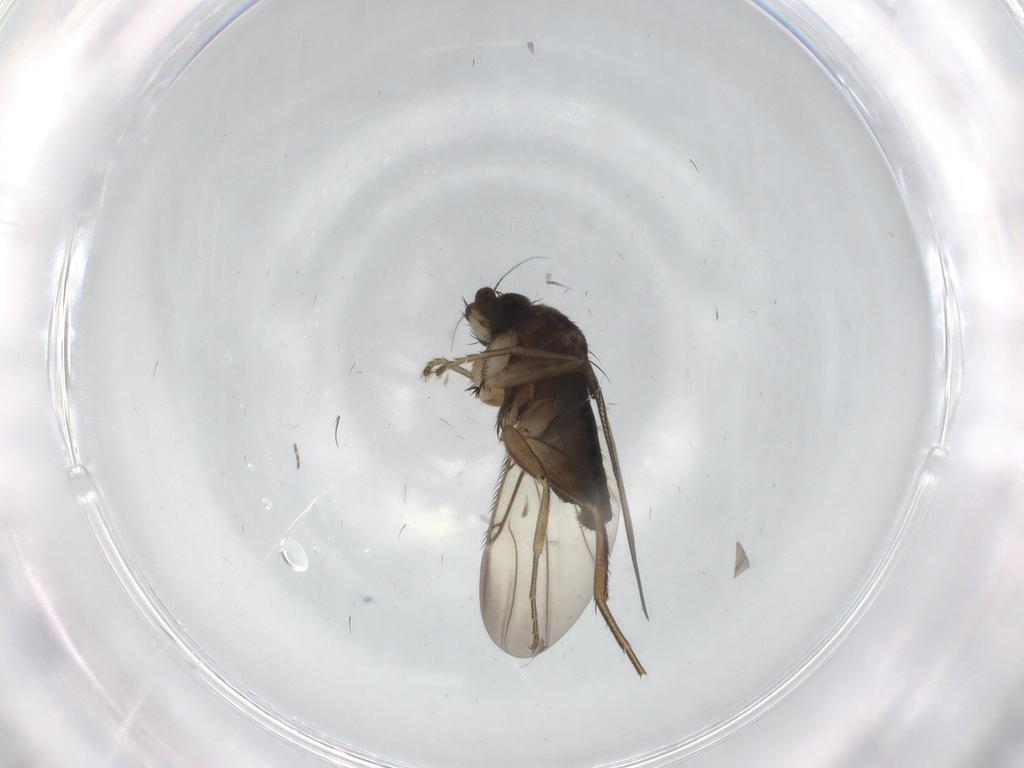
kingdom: Animalia
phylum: Arthropoda
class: Insecta
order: Diptera
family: Phoridae
